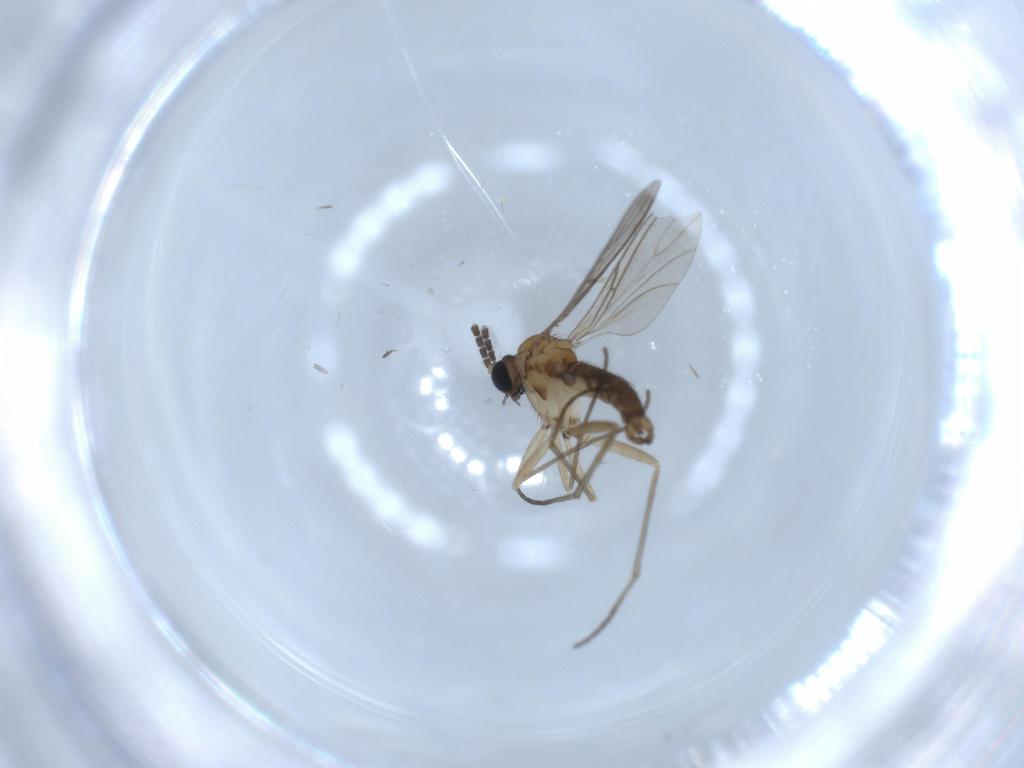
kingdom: Animalia
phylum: Arthropoda
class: Insecta
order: Diptera
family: Sciaridae
